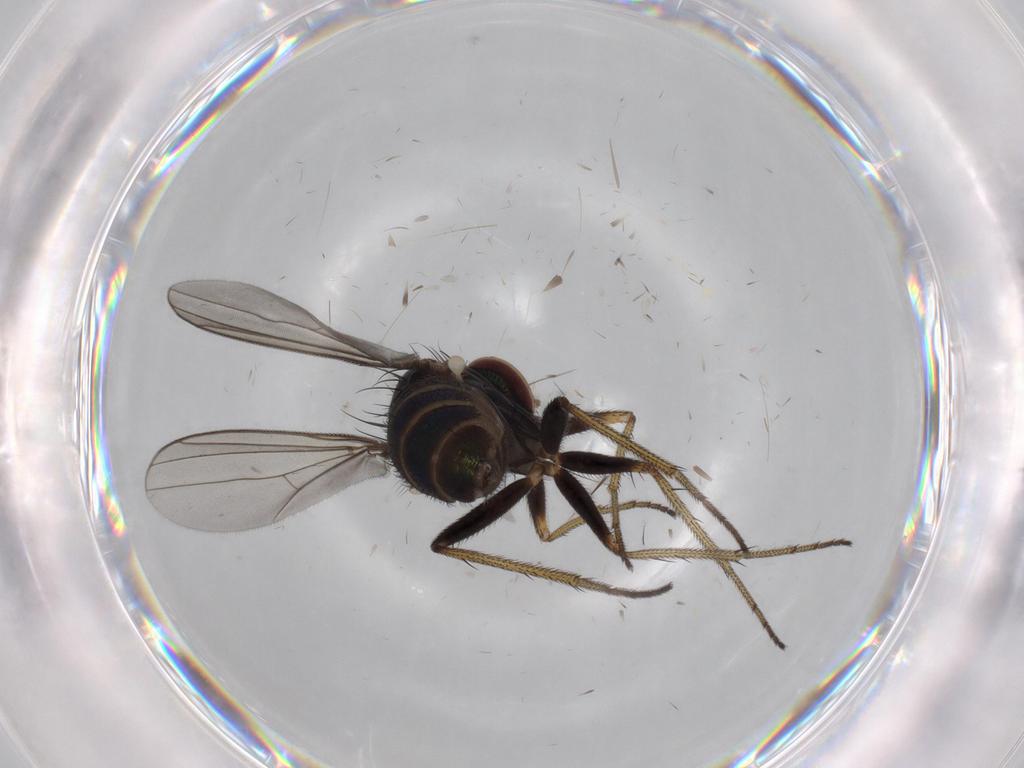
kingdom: Animalia
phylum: Arthropoda
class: Insecta
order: Diptera
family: Dolichopodidae
